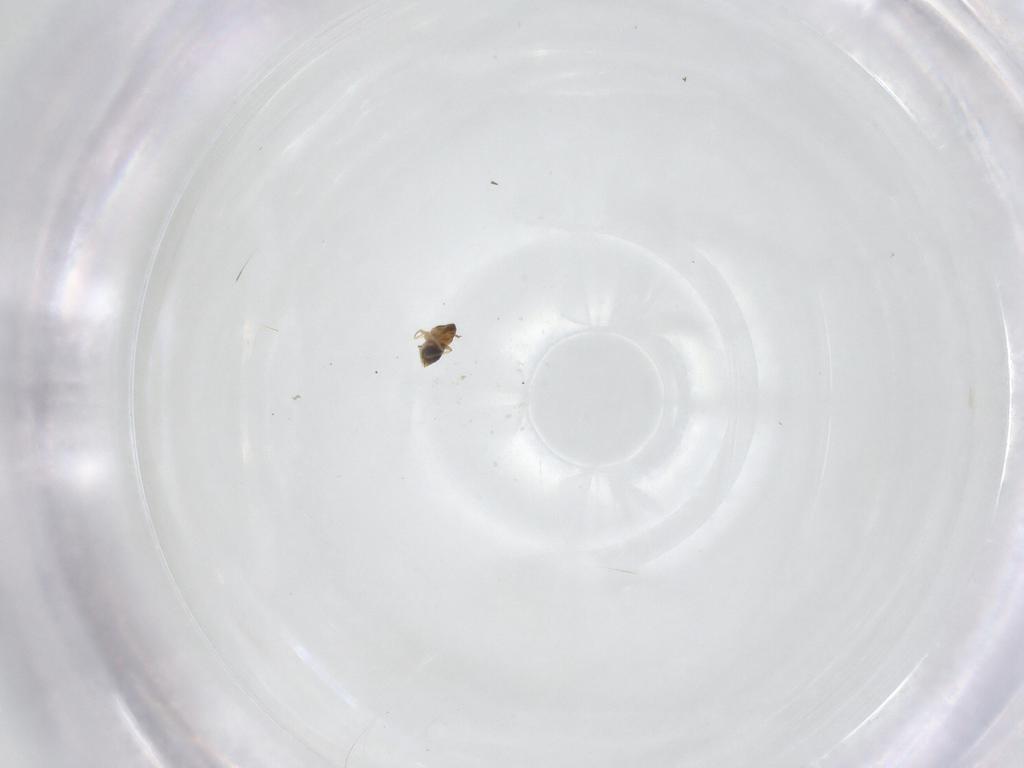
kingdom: Animalia
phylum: Arthropoda
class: Insecta
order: Hymenoptera
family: Trichogrammatidae
